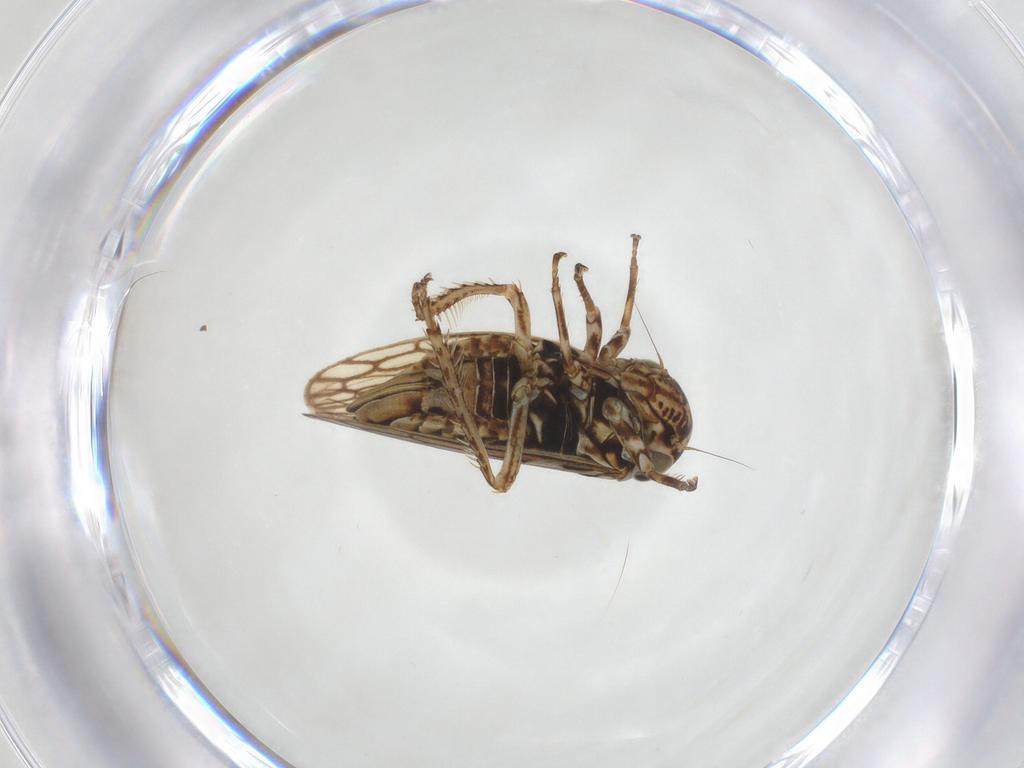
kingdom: Animalia
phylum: Arthropoda
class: Insecta
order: Hemiptera
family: Cicadellidae
